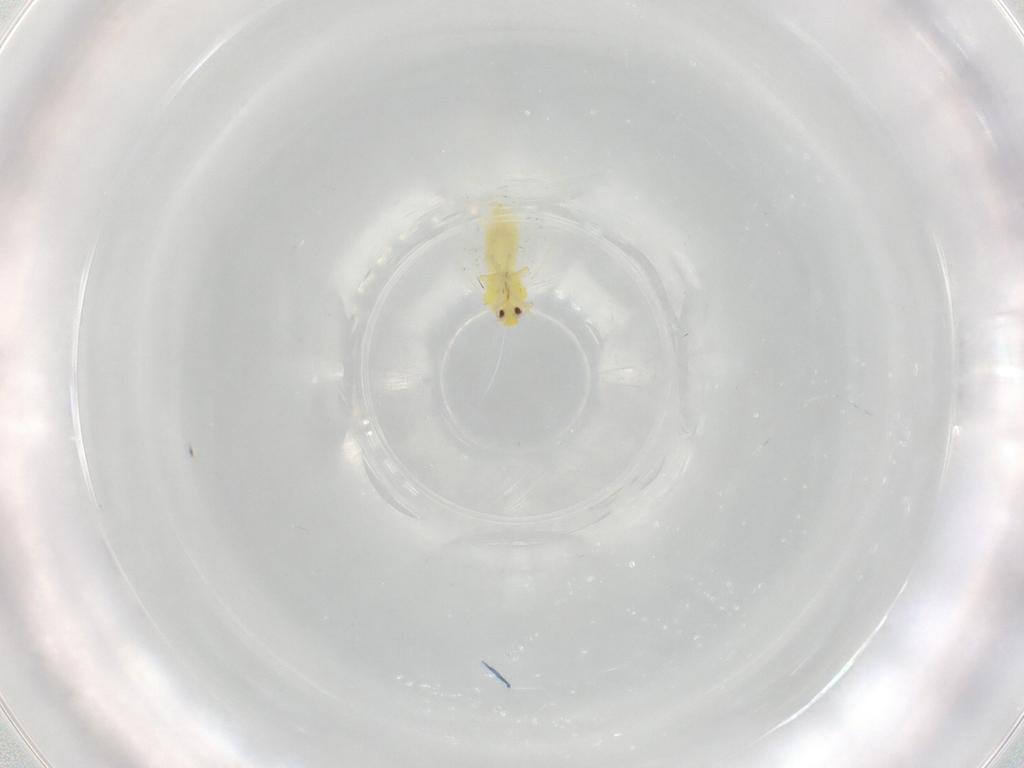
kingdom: Animalia
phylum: Arthropoda
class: Insecta
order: Hemiptera
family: Aleyrodidae
